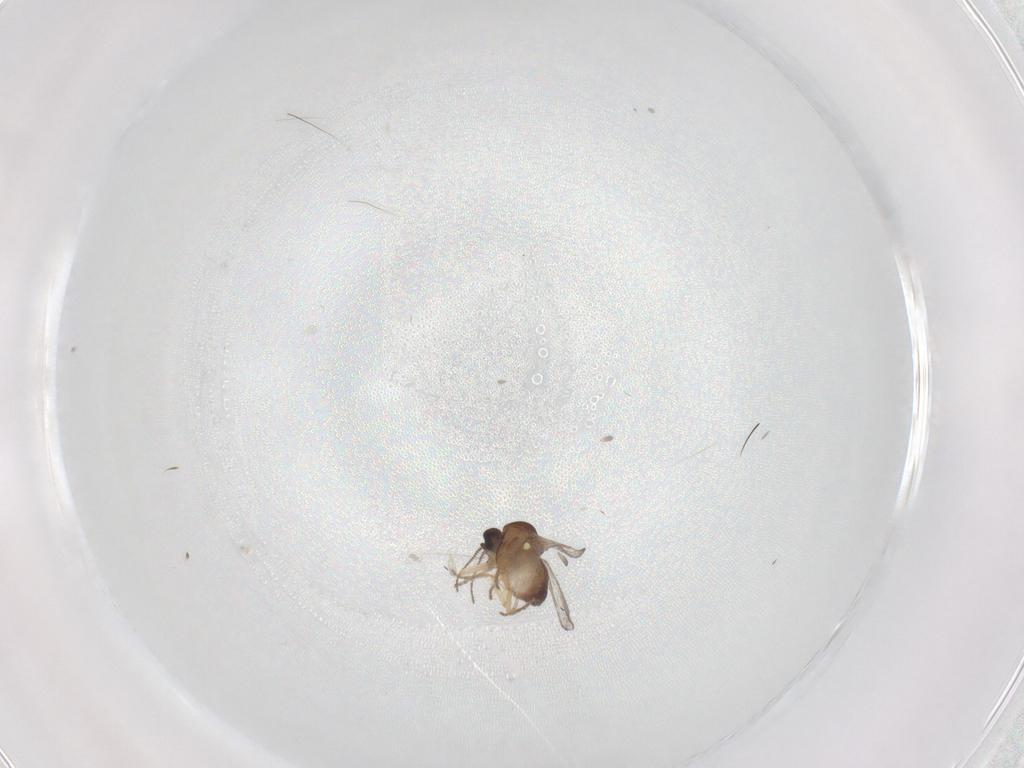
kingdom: Animalia
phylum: Arthropoda
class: Insecta
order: Diptera
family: Ceratopogonidae
